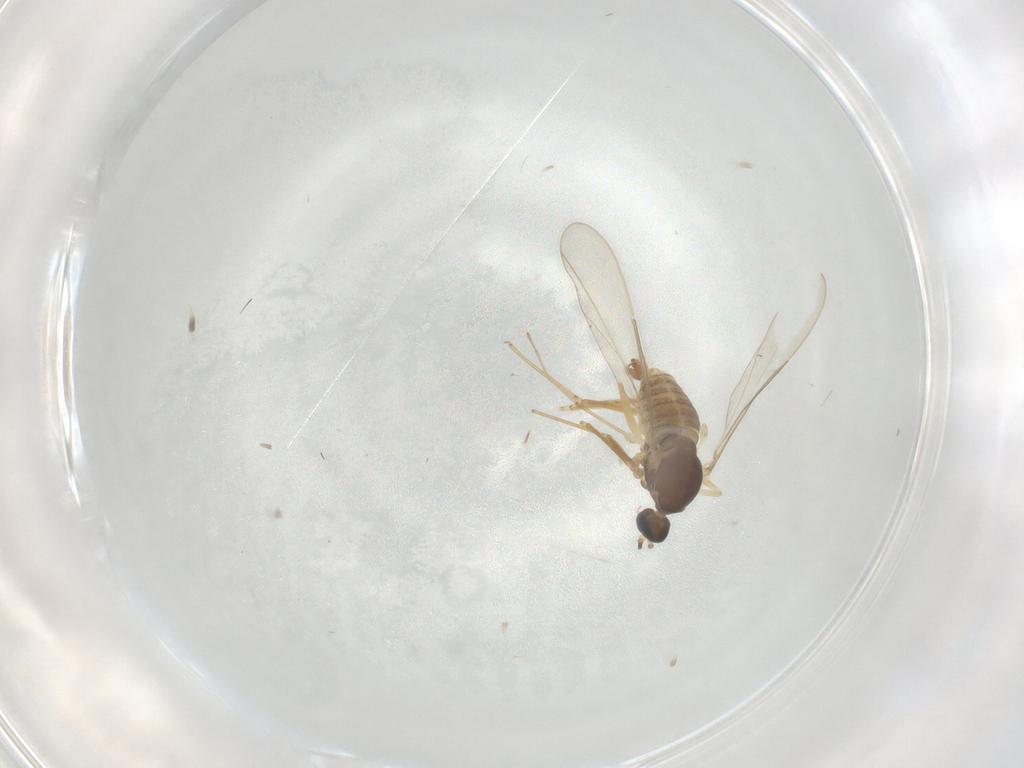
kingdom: Animalia
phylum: Arthropoda
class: Insecta
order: Diptera
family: Cecidomyiidae
